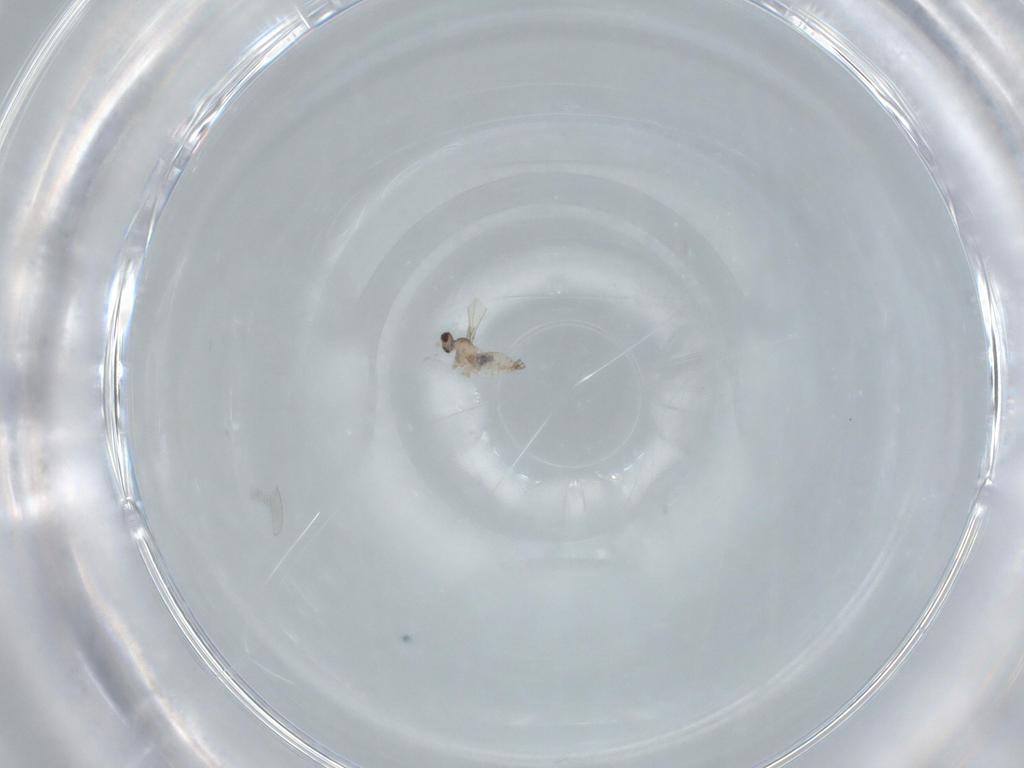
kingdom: Animalia
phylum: Arthropoda
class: Insecta
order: Diptera
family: Cecidomyiidae
